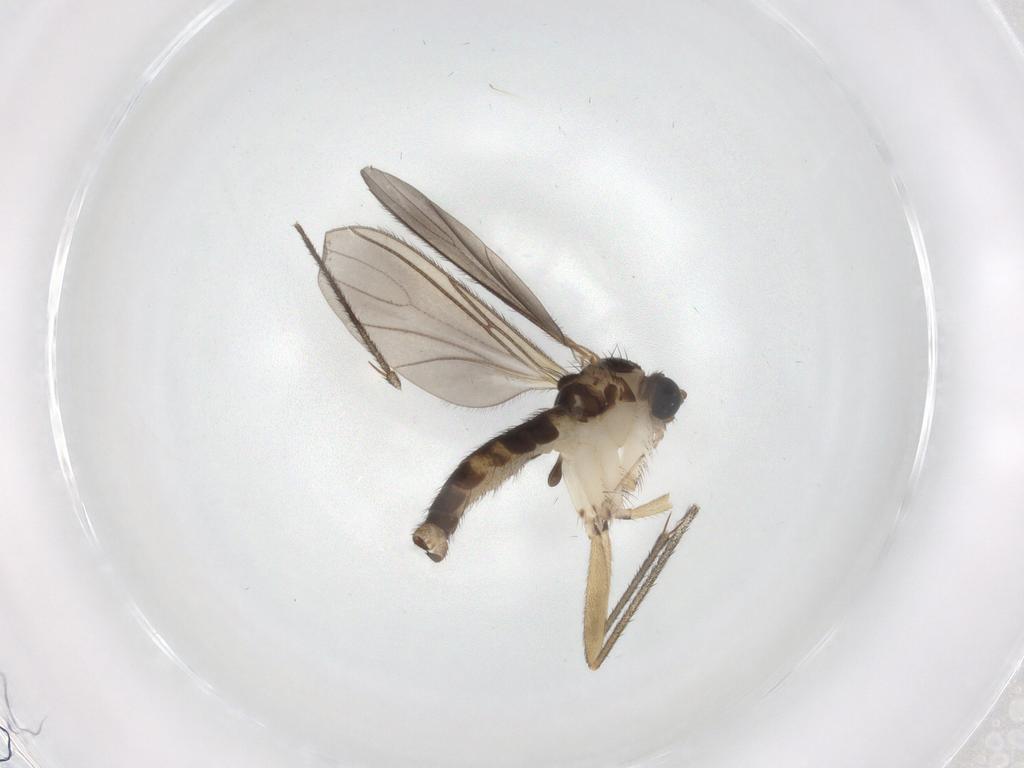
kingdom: Animalia
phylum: Arthropoda
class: Insecta
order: Diptera
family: Sciaridae
